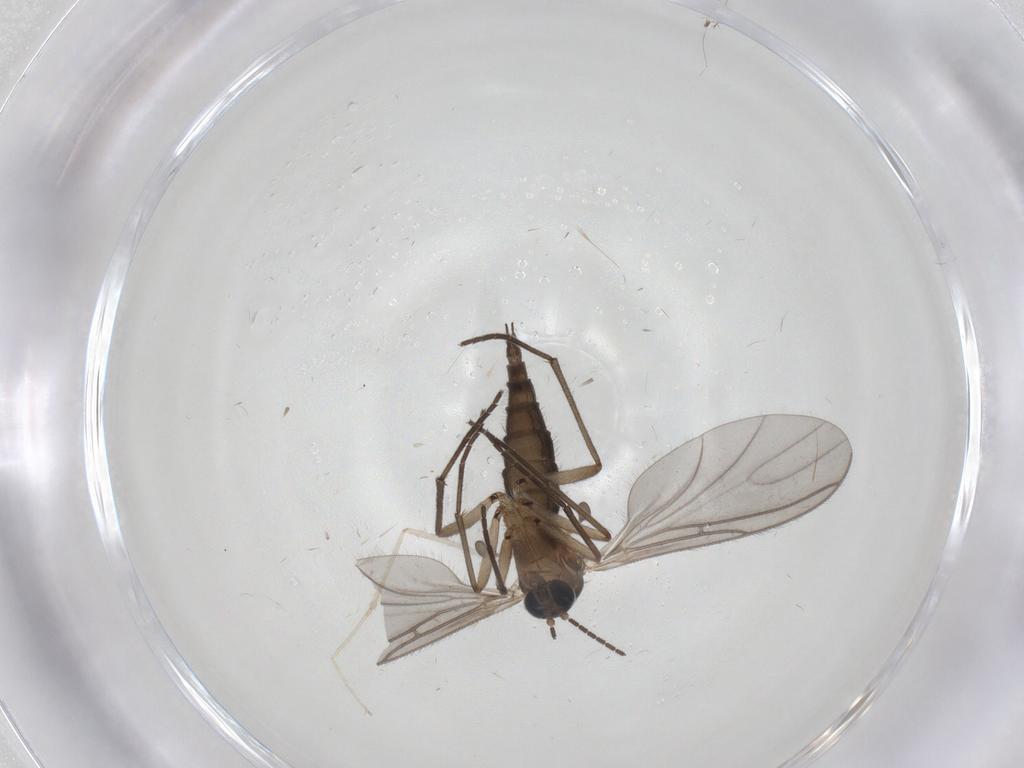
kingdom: Animalia
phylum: Arthropoda
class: Insecta
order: Diptera
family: Cecidomyiidae
